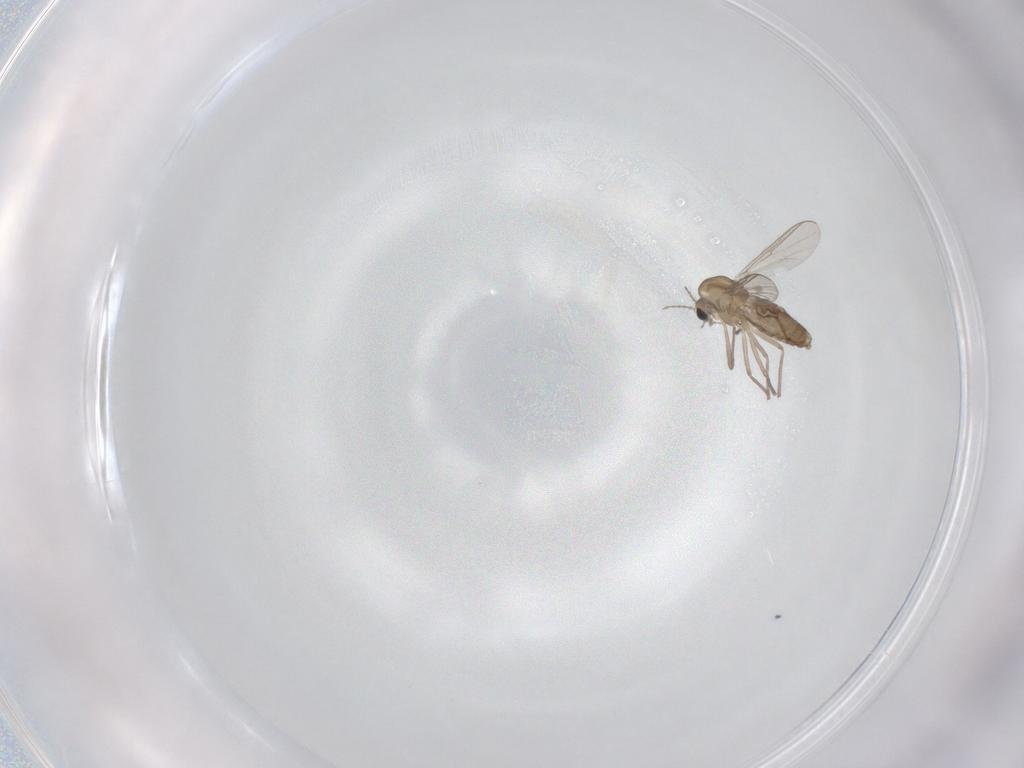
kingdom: Animalia
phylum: Arthropoda
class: Insecta
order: Diptera
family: Chironomidae
